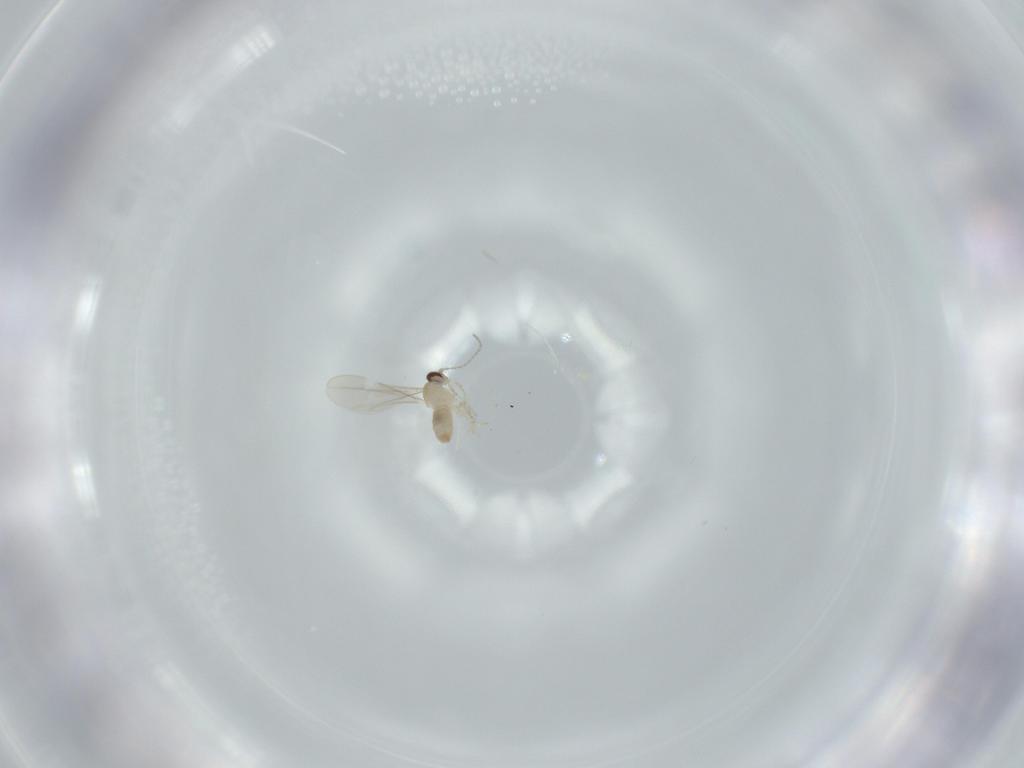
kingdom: Animalia
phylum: Arthropoda
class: Insecta
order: Diptera
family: Cecidomyiidae
